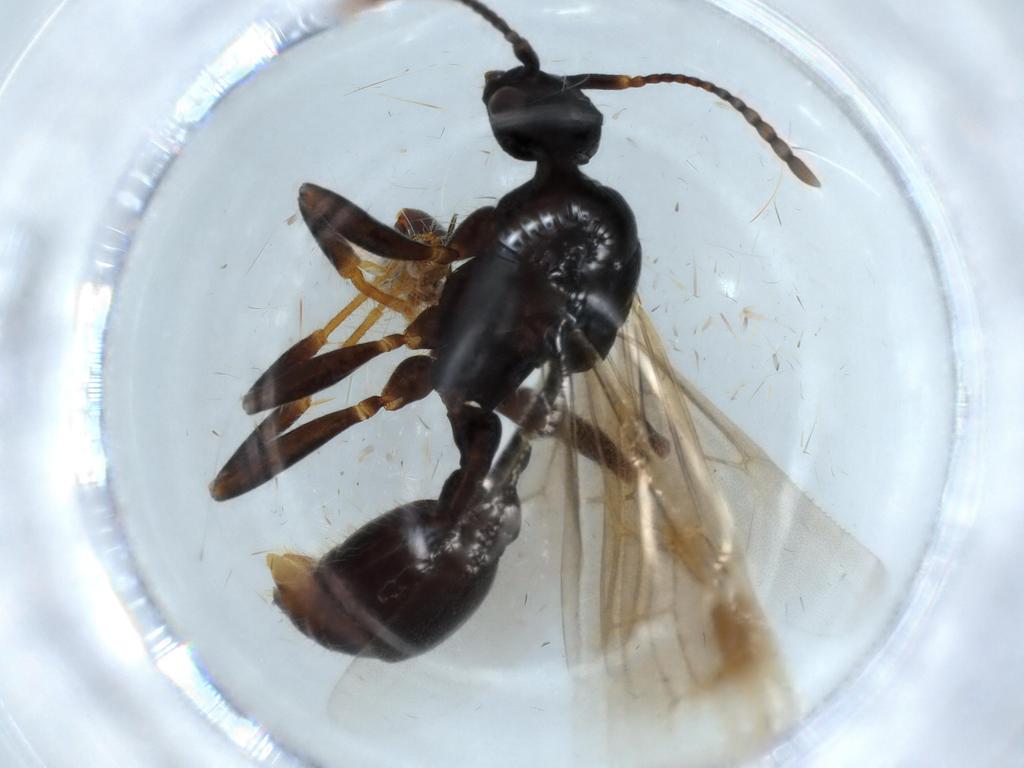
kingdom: Animalia
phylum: Arthropoda
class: Insecta
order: Hymenoptera
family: Formicidae
